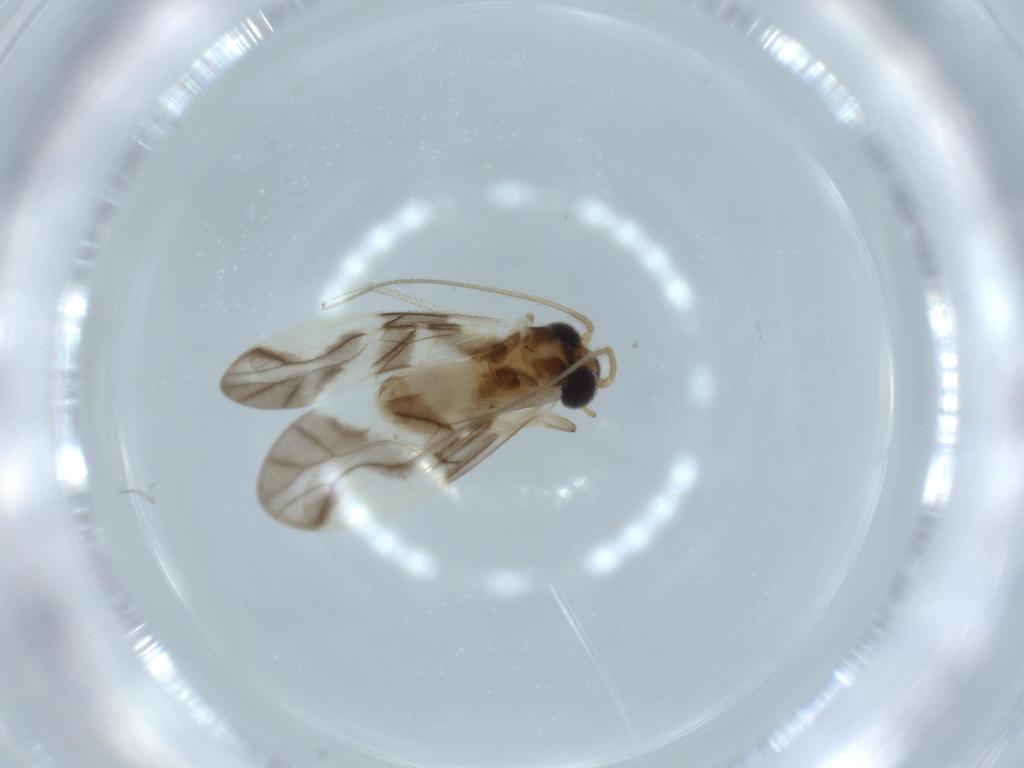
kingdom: Animalia
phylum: Arthropoda
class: Insecta
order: Psocodea
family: Caeciliusidae
